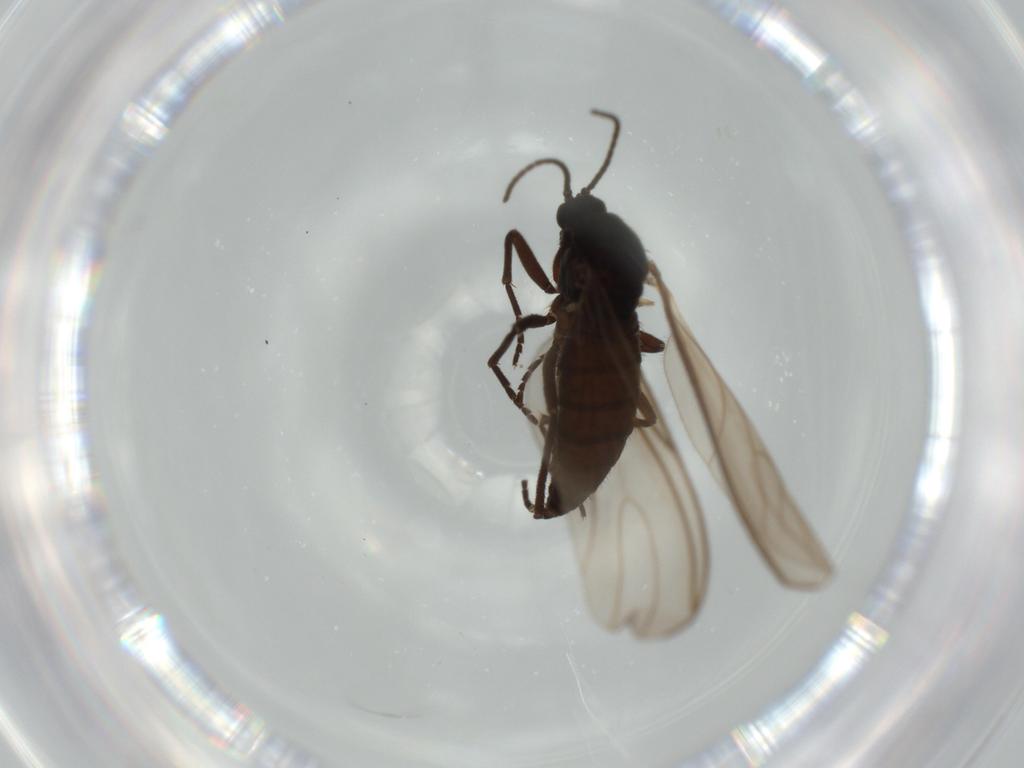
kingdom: Animalia
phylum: Arthropoda
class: Insecta
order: Diptera
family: Sciaridae
